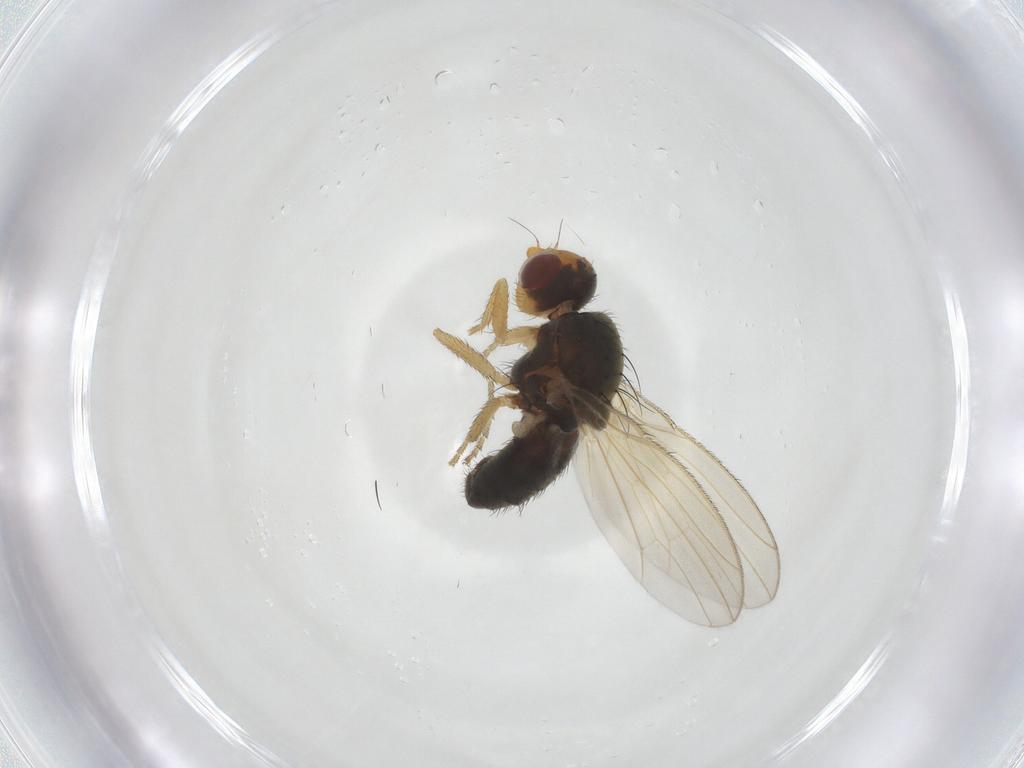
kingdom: Animalia
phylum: Arthropoda
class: Insecta
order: Diptera
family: Heleomyzidae
